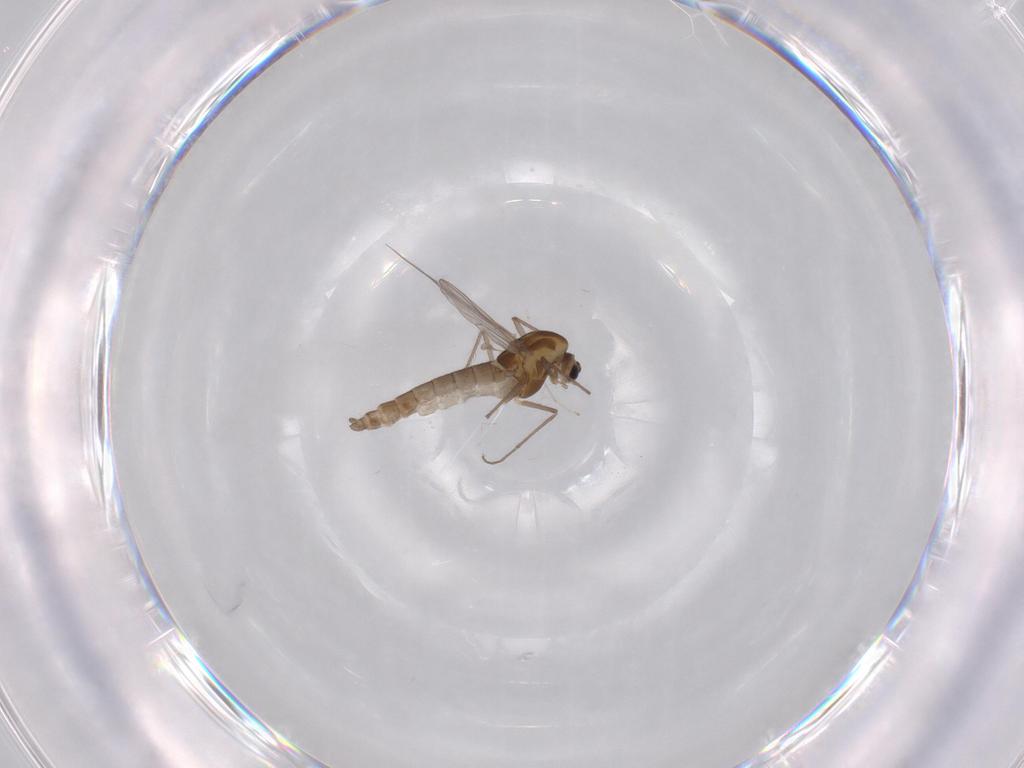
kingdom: Animalia
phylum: Arthropoda
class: Insecta
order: Diptera
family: Chironomidae
